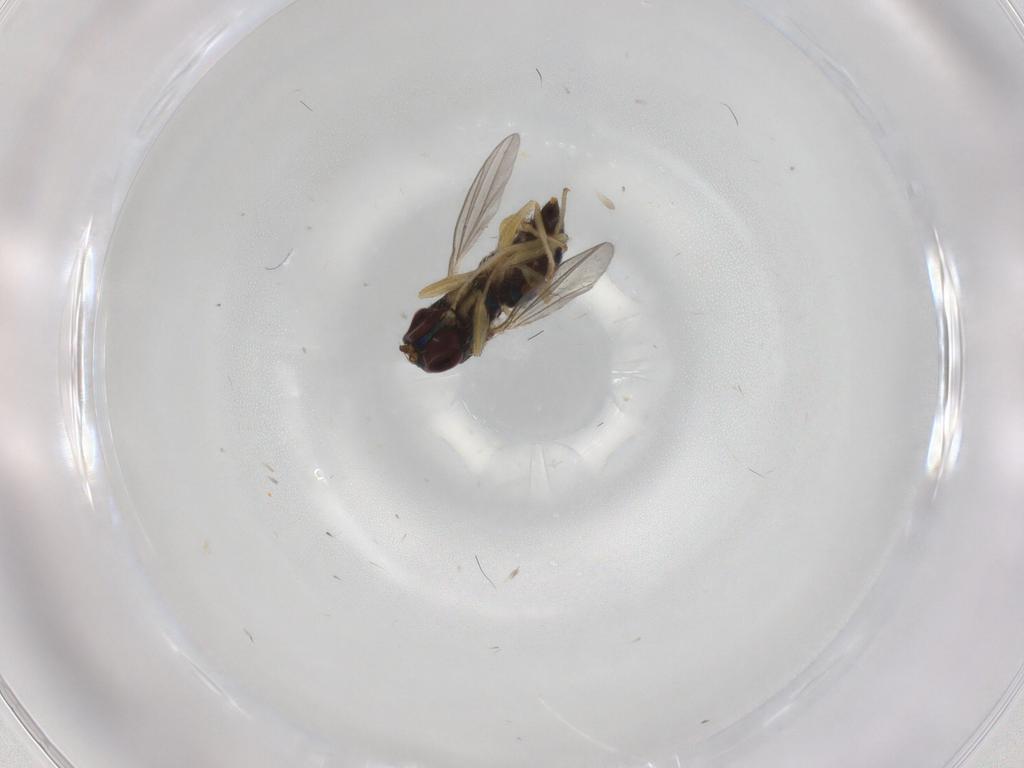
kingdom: Animalia
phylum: Arthropoda
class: Insecta
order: Diptera
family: Dolichopodidae
